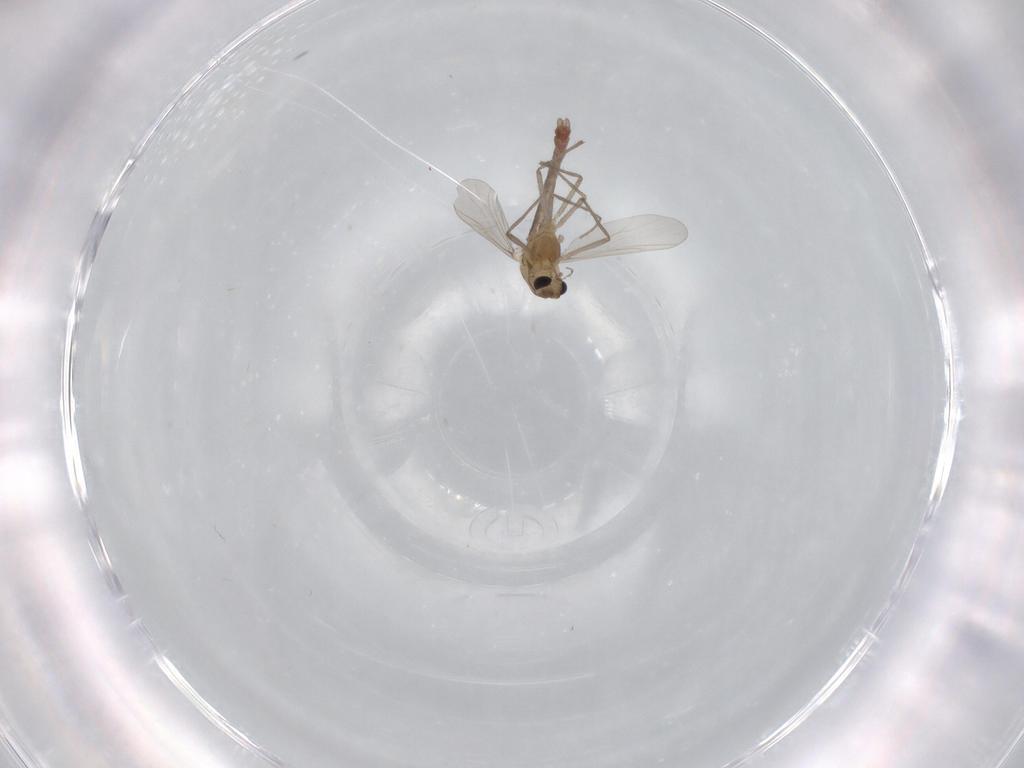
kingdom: Animalia
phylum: Arthropoda
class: Insecta
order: Diptera
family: Chironomidae
